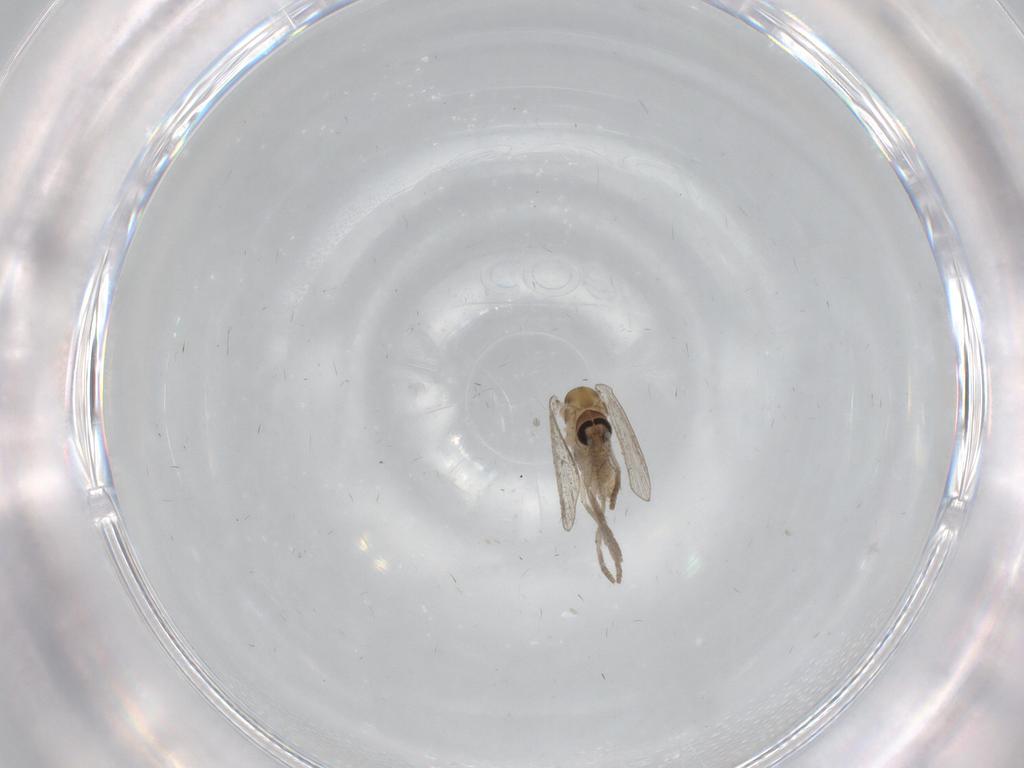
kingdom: Animalia
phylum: Arthropoda
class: Insecta
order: Diptera
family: Psychodidae
